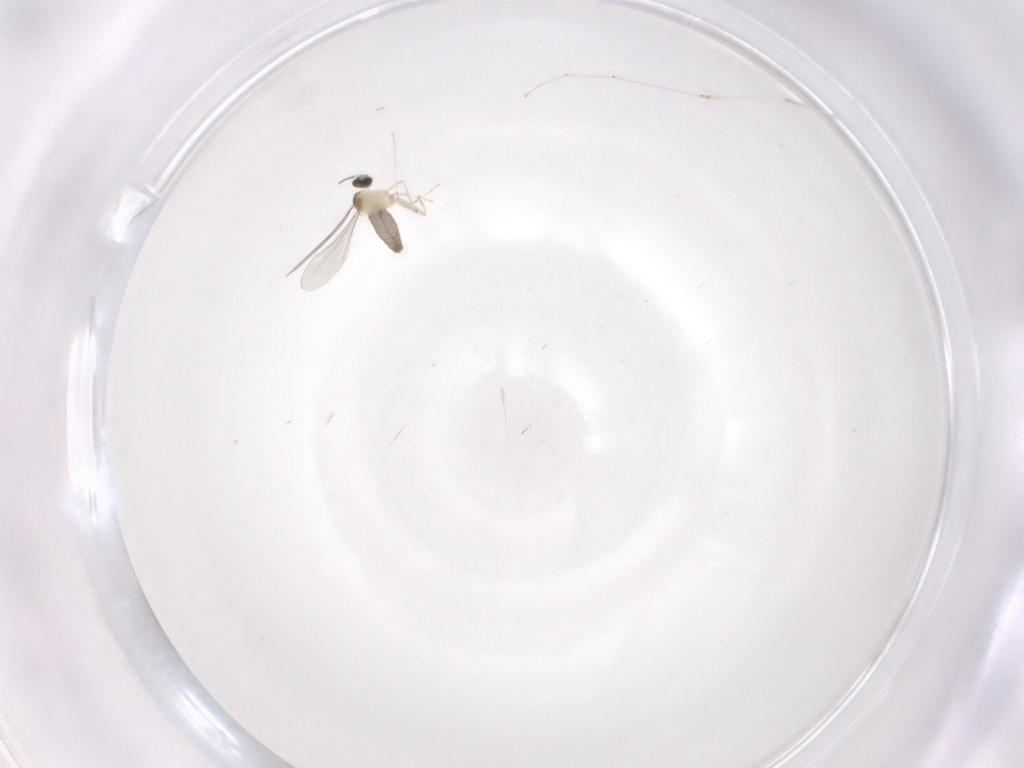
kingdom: Animalia
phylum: Arthropoda
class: Insecta
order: Diptera
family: Cecidomyiidae
